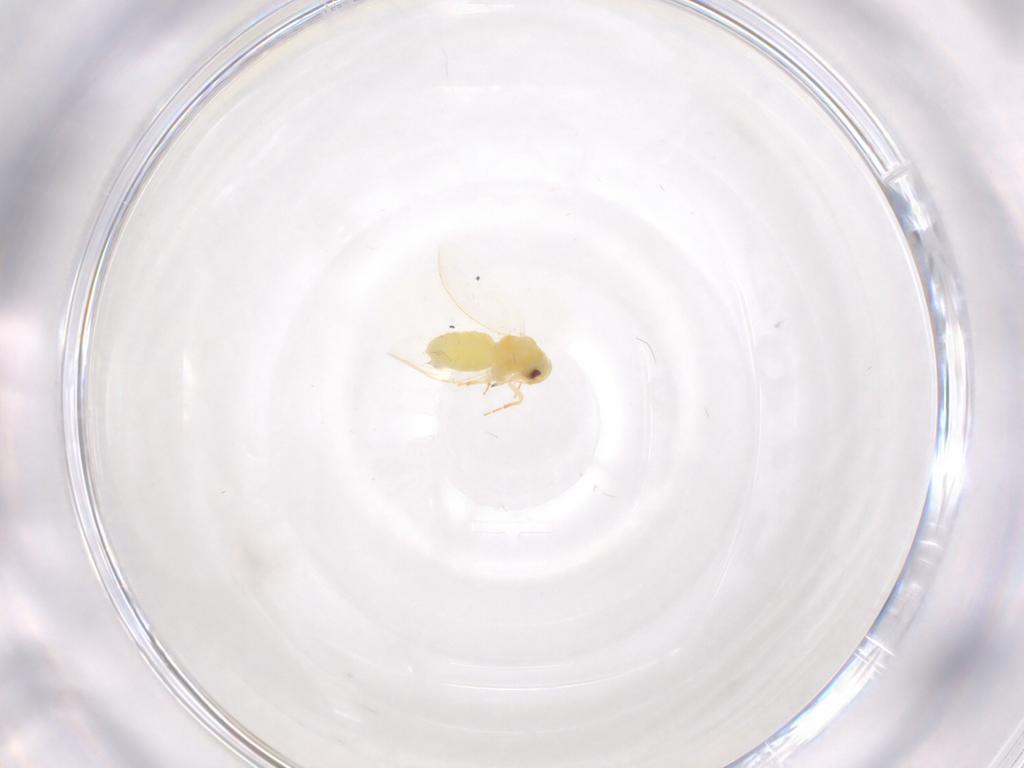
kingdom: Animalia
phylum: Arthropoda
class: Insecta
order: Hemiptera
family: Aleyrodidae
